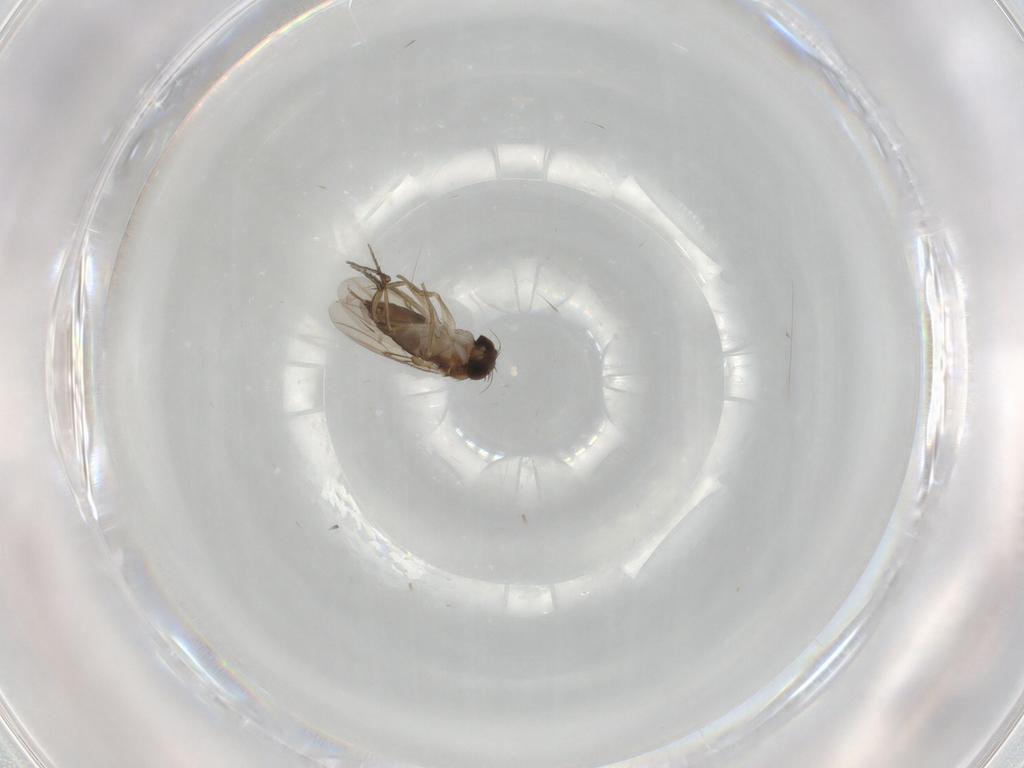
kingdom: Animalia
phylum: Arthropoda
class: Insecta
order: Diptera
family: Phoridae
